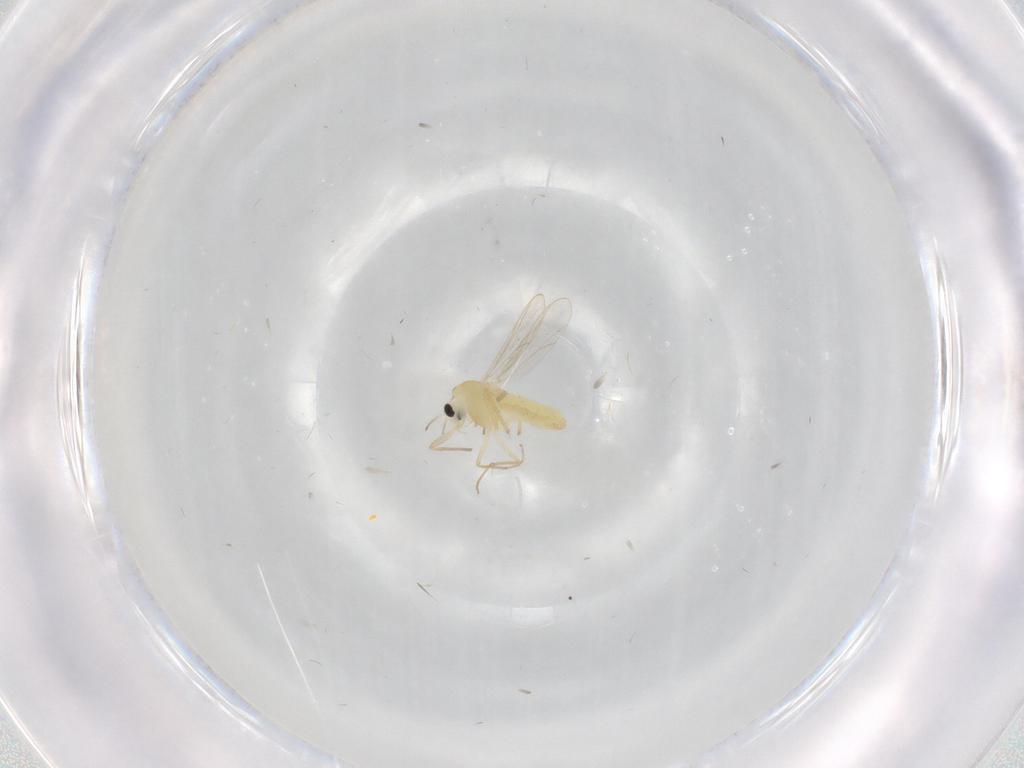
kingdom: Animalia
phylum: Arthropoda
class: Insecta
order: Diptera
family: Chironomidae
